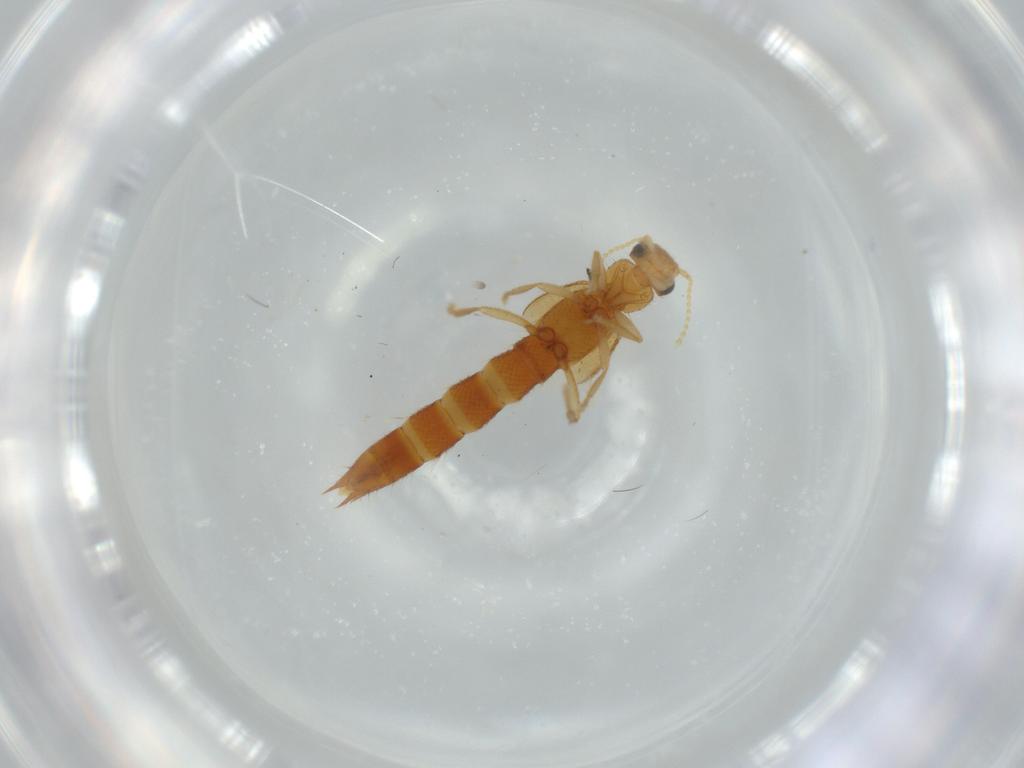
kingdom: Animalia
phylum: Arthropoda
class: Insecta
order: Coleoptera
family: Staphylinidae
